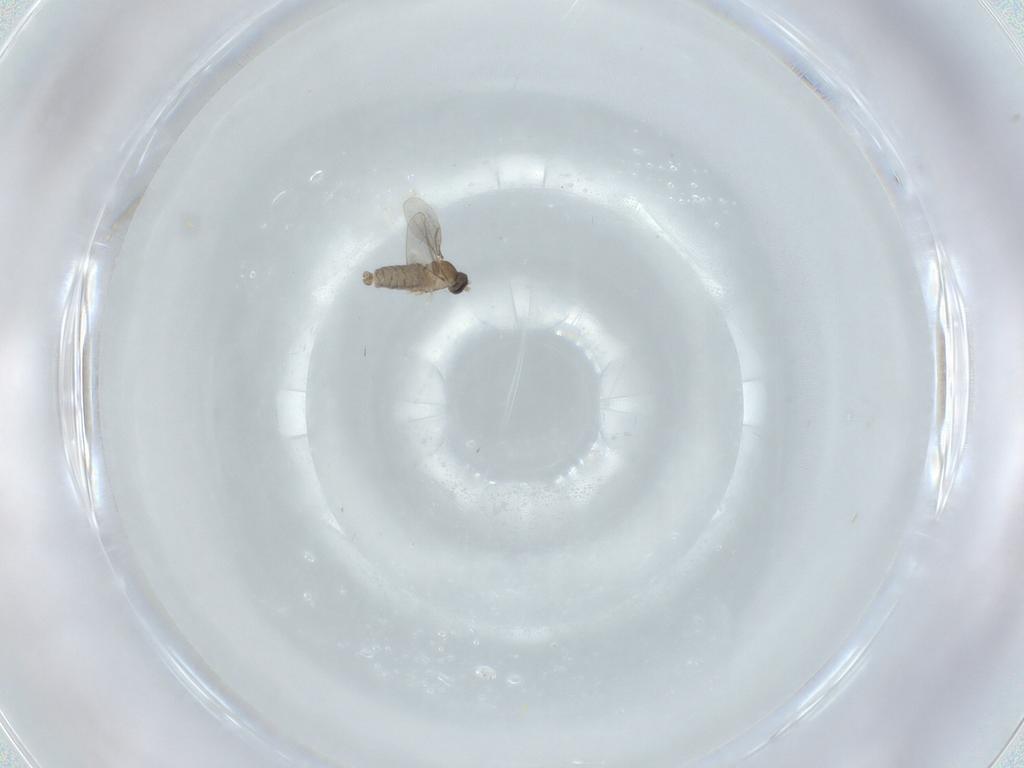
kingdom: Animalia
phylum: Arthropoda
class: Insecta
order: Diptera
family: Cecidomyiidae
